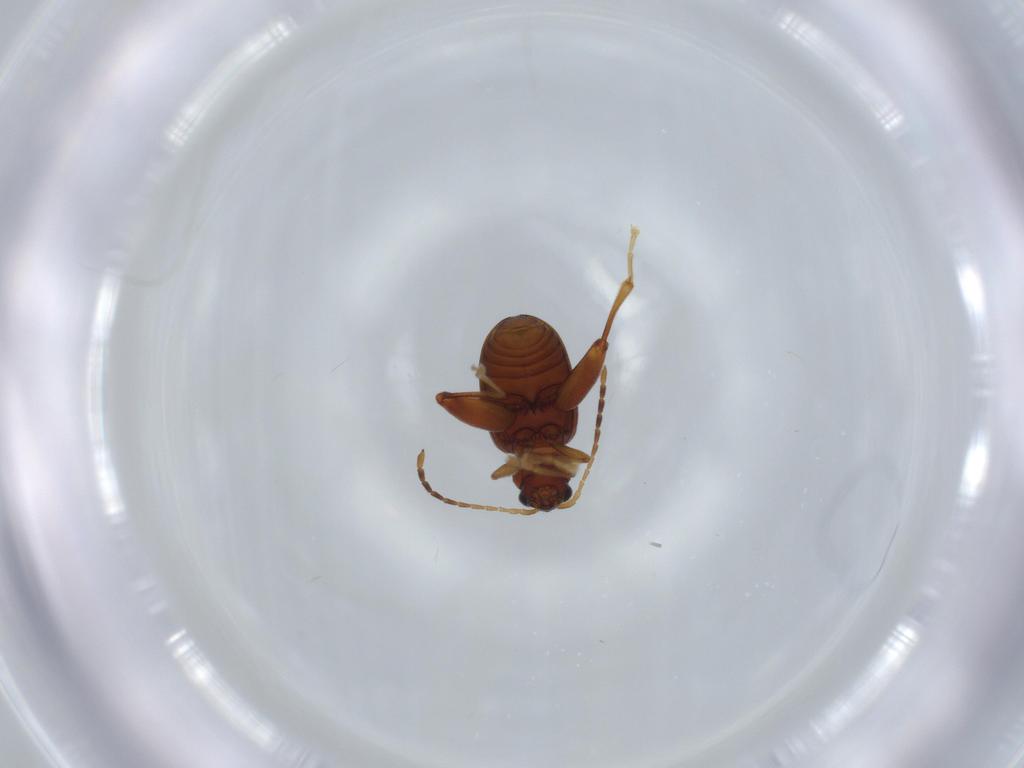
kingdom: Animalia
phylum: Arthropoda
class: Insecta
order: Coleoptera
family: Chrysomelidae
